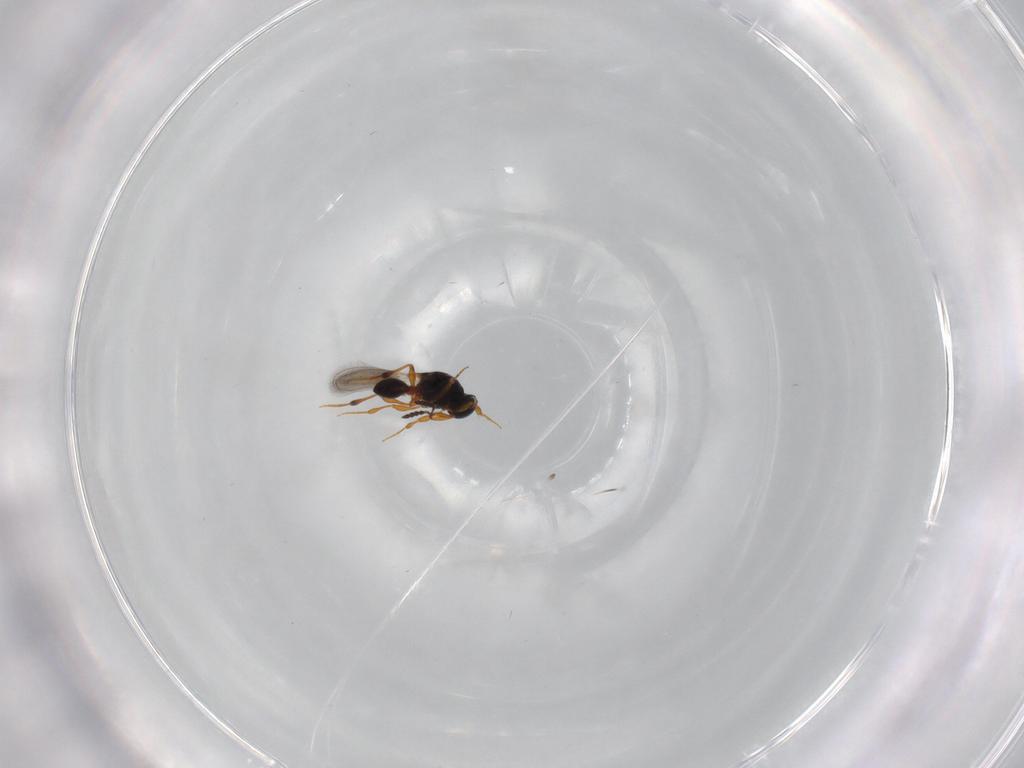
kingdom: Animalia
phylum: Arthropoda
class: Insecta
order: Hymenoptera
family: Platygastridae
